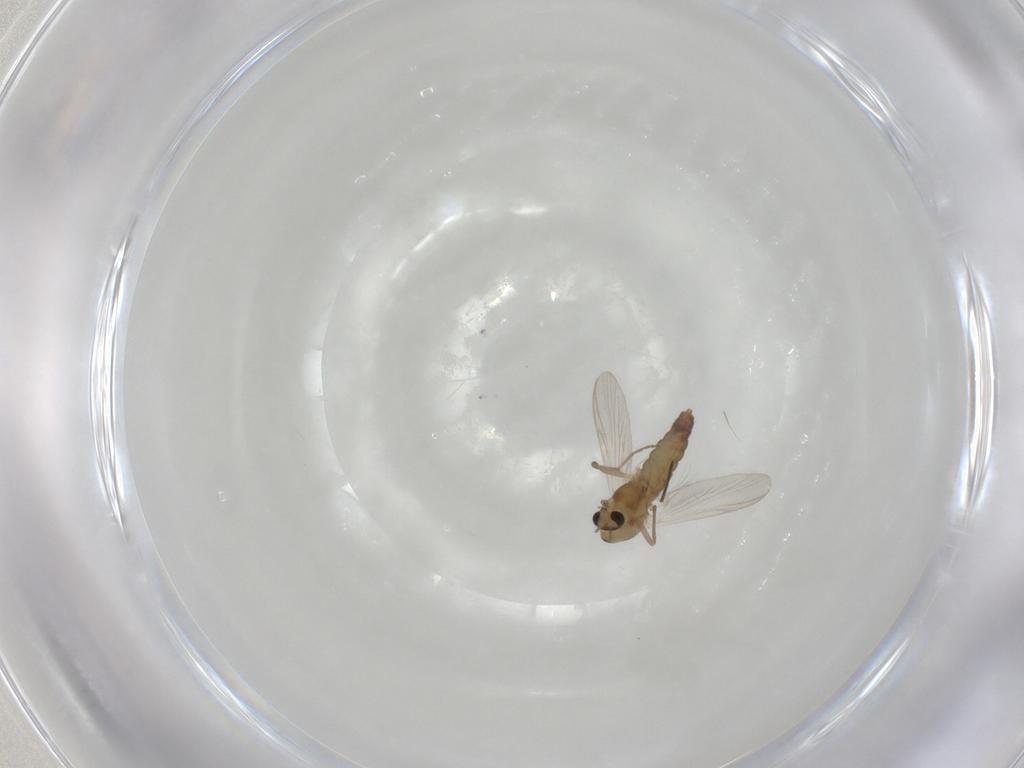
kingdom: Animalia
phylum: Arthropoda
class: Insecta
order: Diptera
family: Chironomidae
